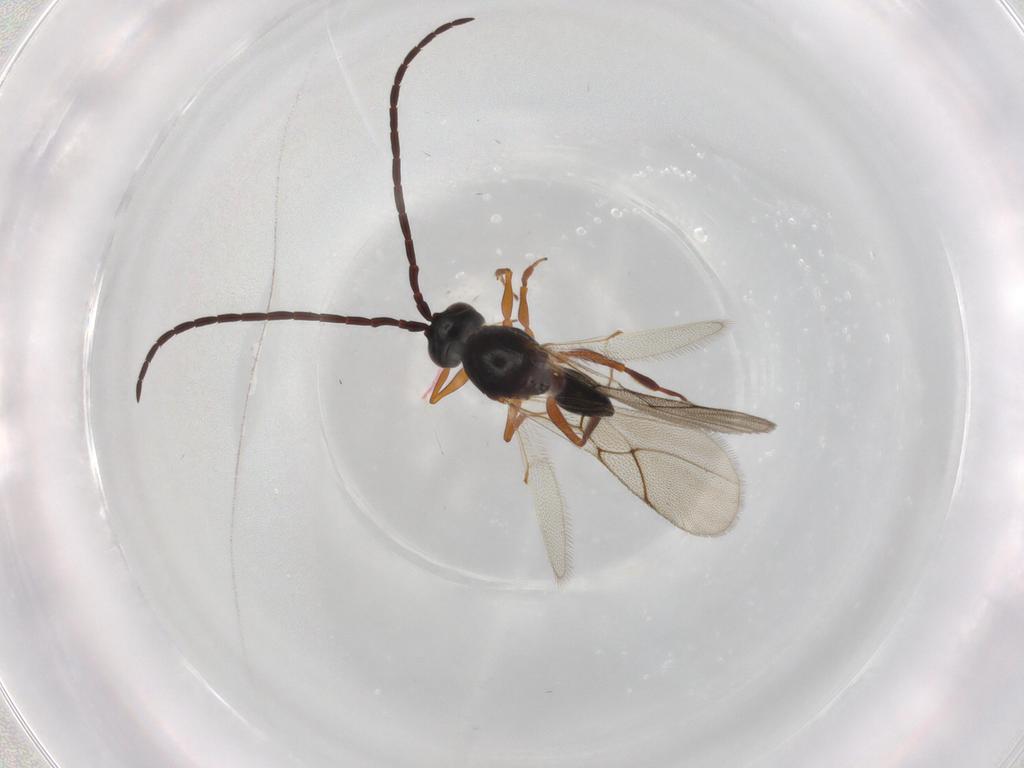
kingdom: Animalia
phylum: Arthropoda
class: Insecta
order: Hymenoptera
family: Figitidae
